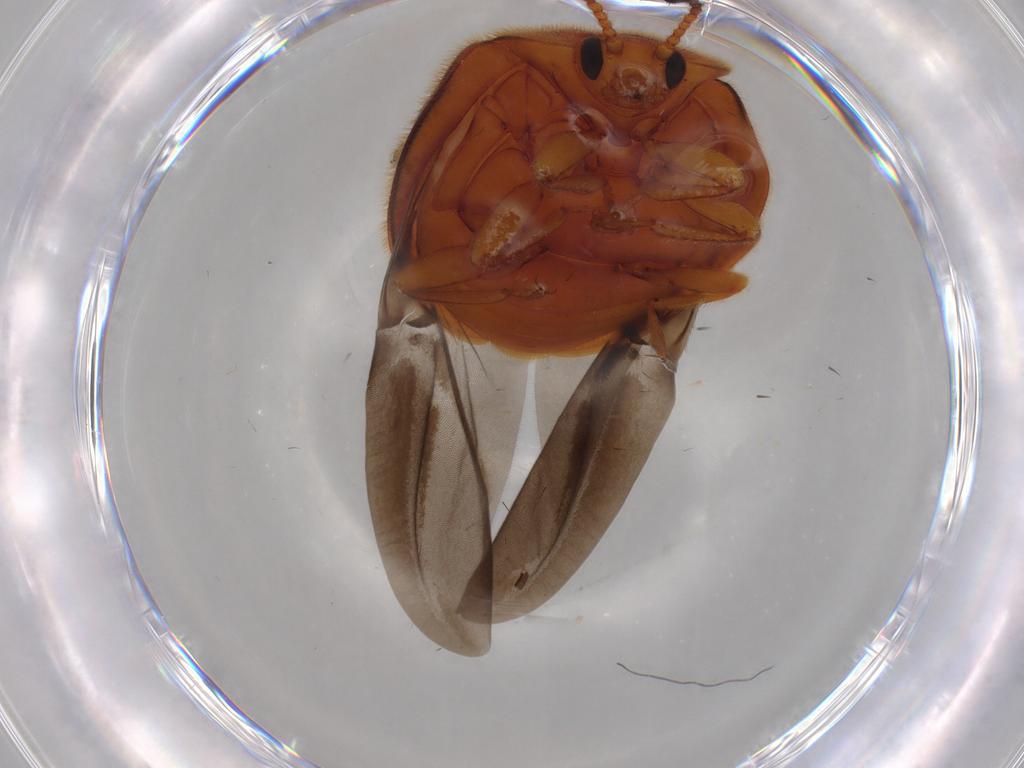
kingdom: Animalia
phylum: Arthropoda
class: Insecta
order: Coleoptera
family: Endomychidae
